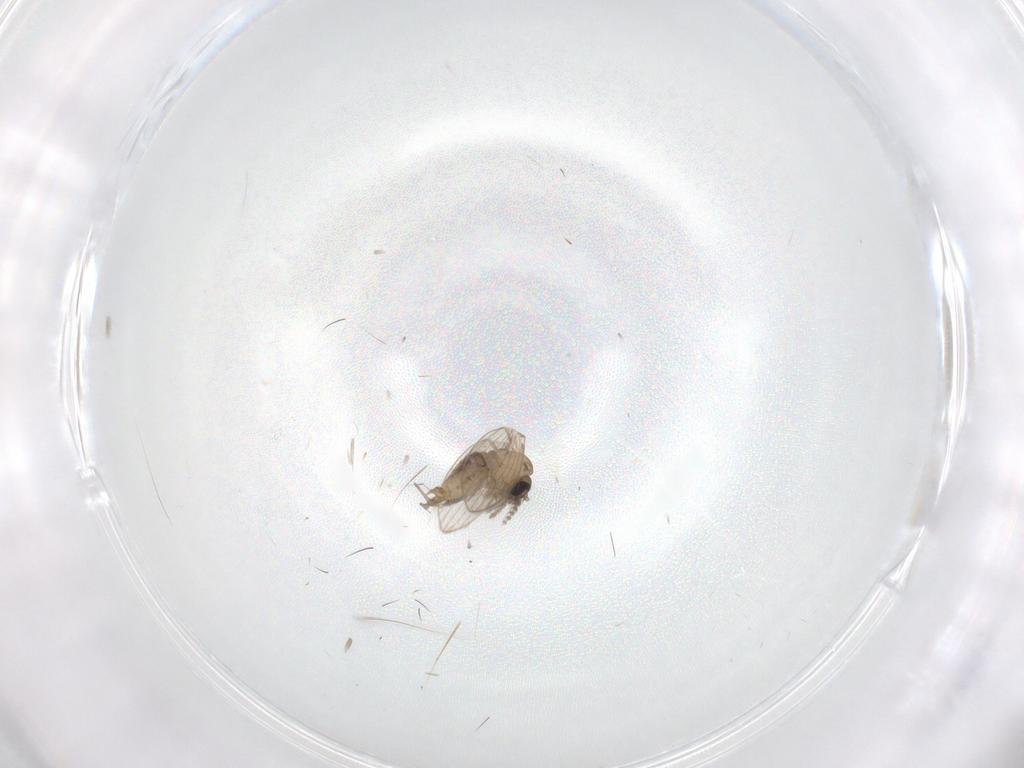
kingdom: Animalia
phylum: Arthropoda
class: Insecta
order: Diptera
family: Psychodidae
